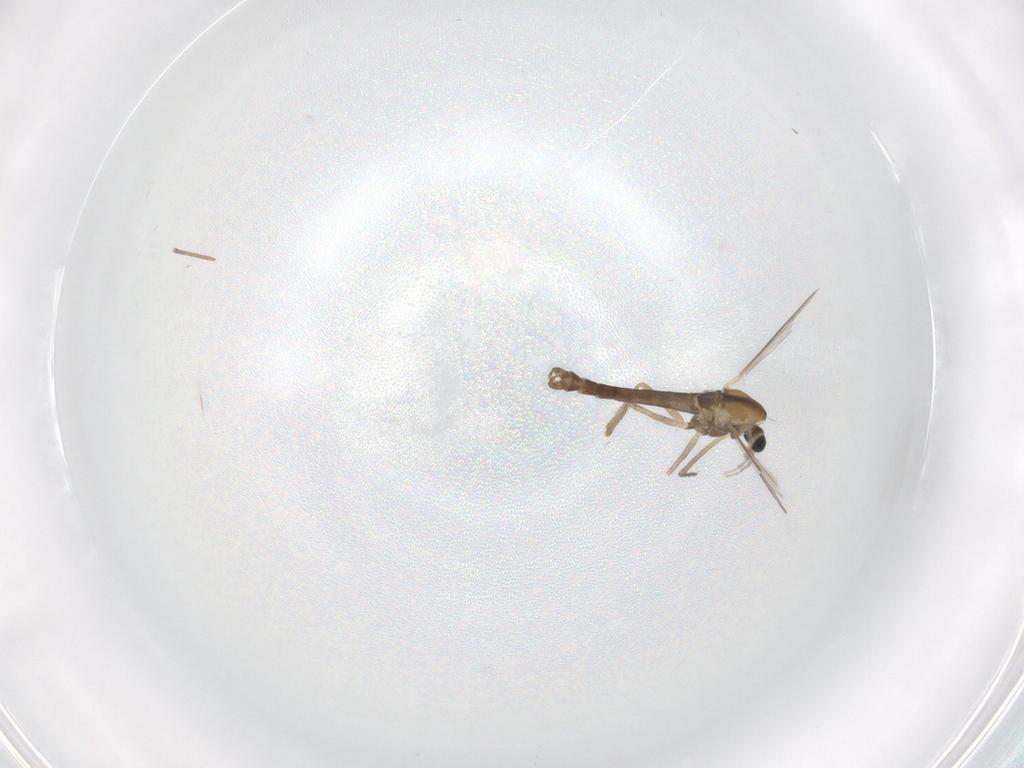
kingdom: Animalia
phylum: Arthropoda
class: Insecta
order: Diptera
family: Chironomidae
